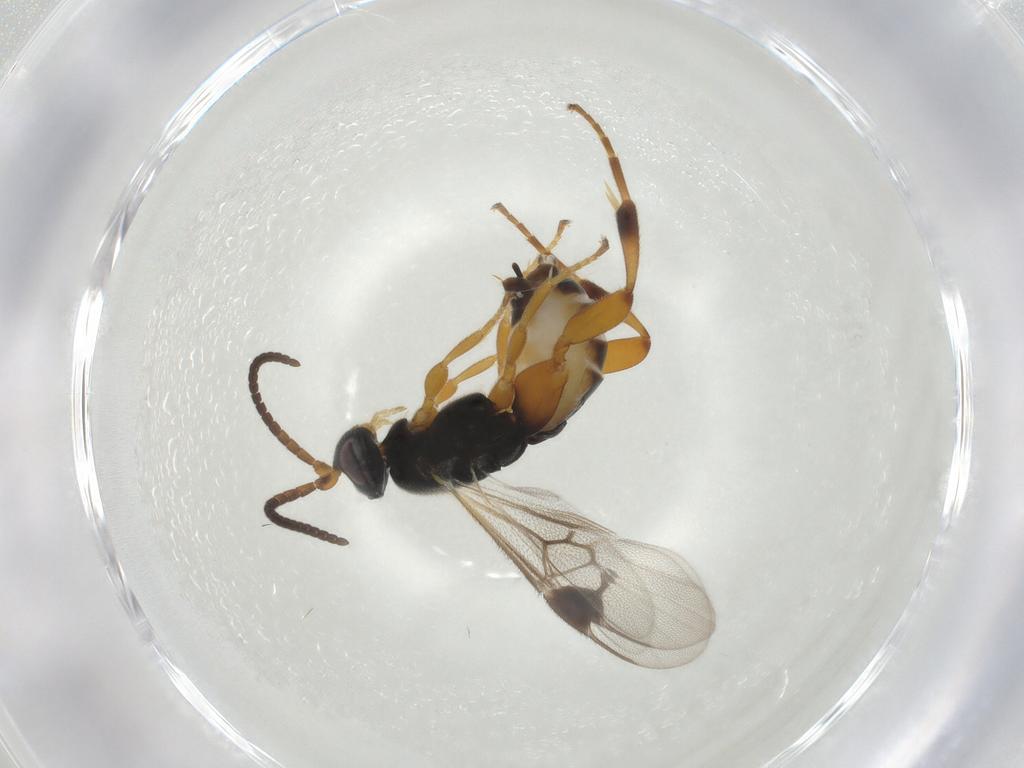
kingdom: Animalia
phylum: Arthropoda
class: Insecta
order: Hymenoptera
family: Braconidae
